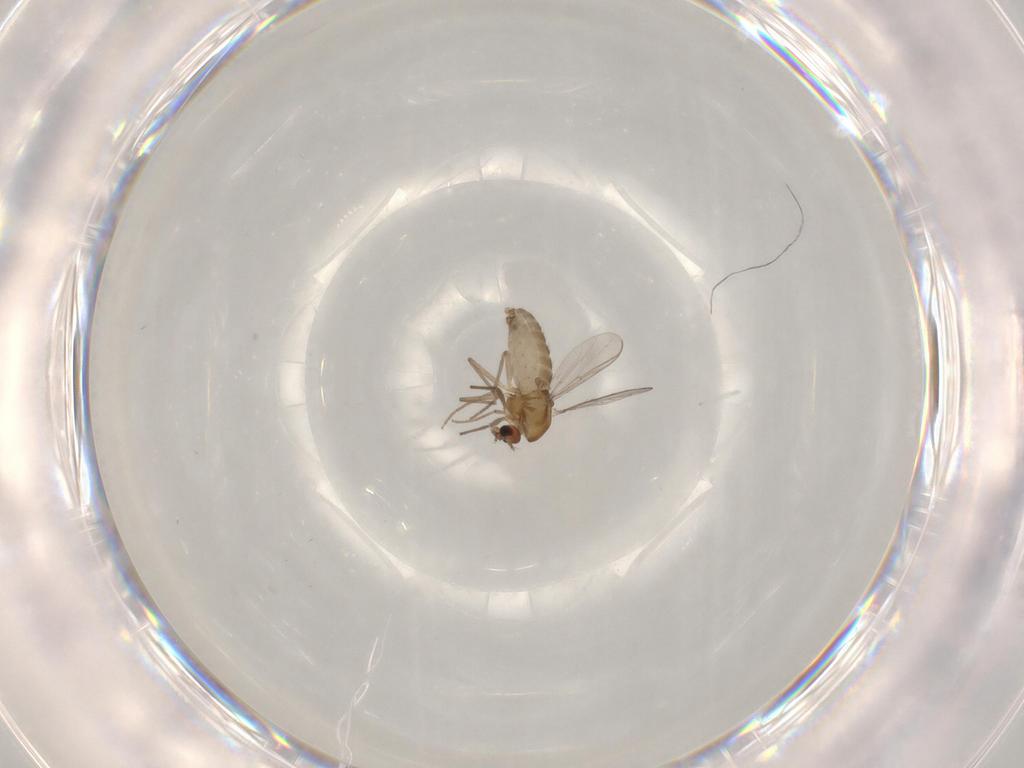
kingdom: Animalia
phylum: Arthropoda
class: Insecta
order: Diptera
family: Chironomidae
